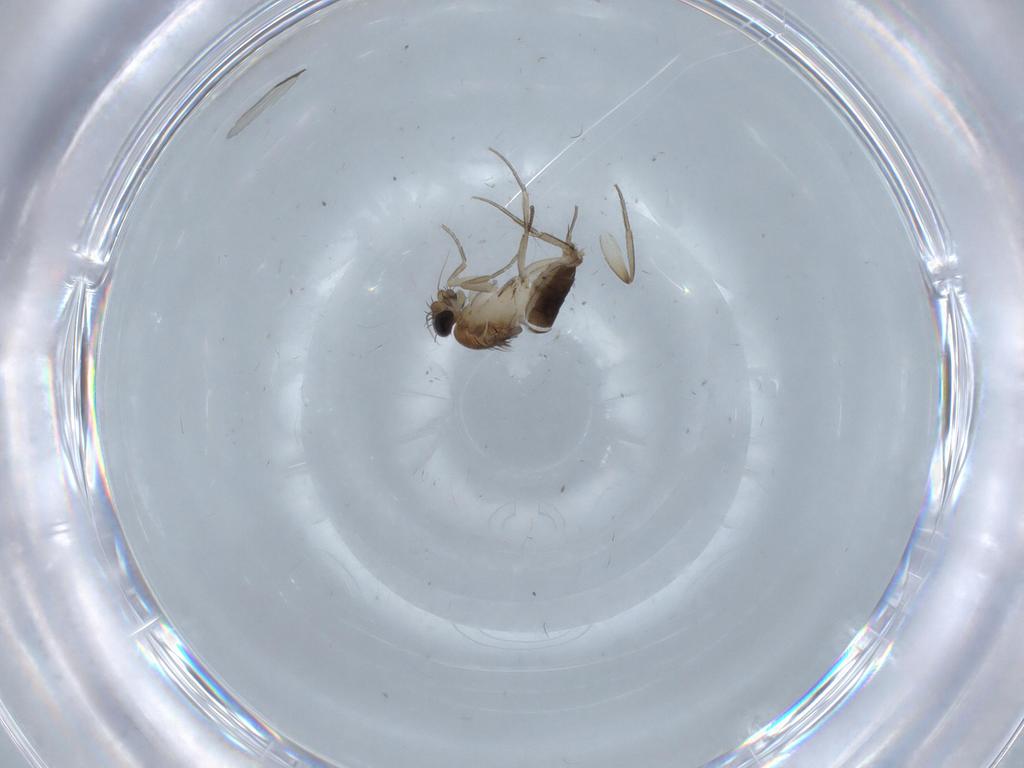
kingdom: Animalia
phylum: Arthropoda
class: Insecta
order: Diptera
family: Phoridae
